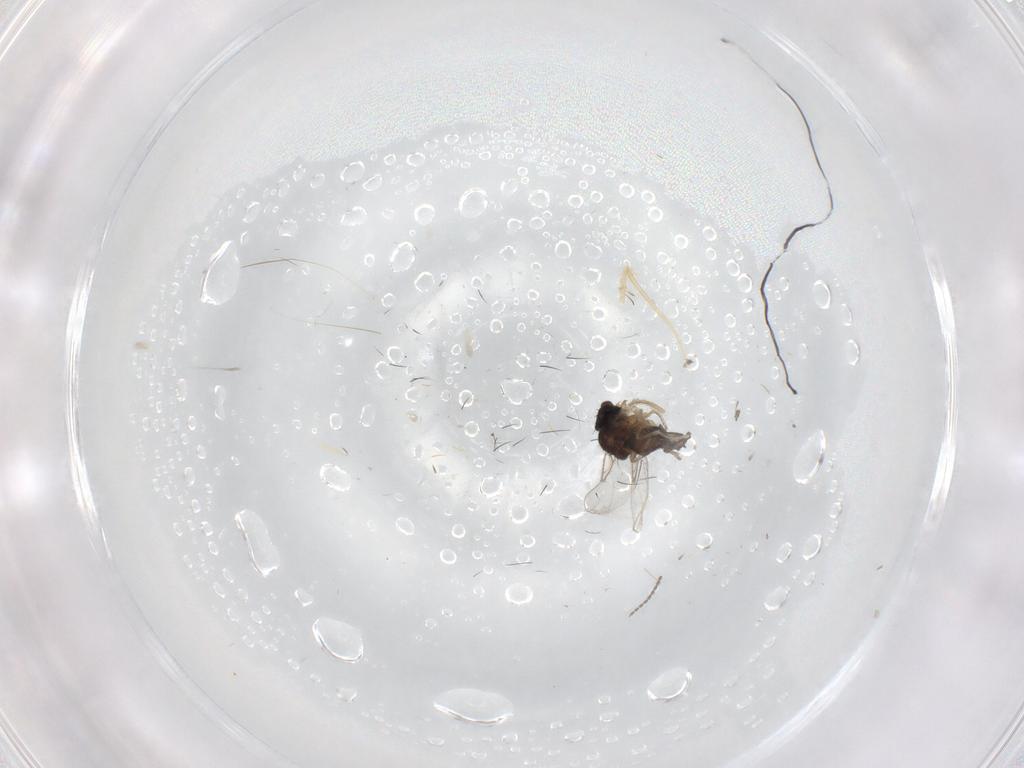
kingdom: Animalia
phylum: Arthropoda
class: Insecta
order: Diptera
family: Phoridae
